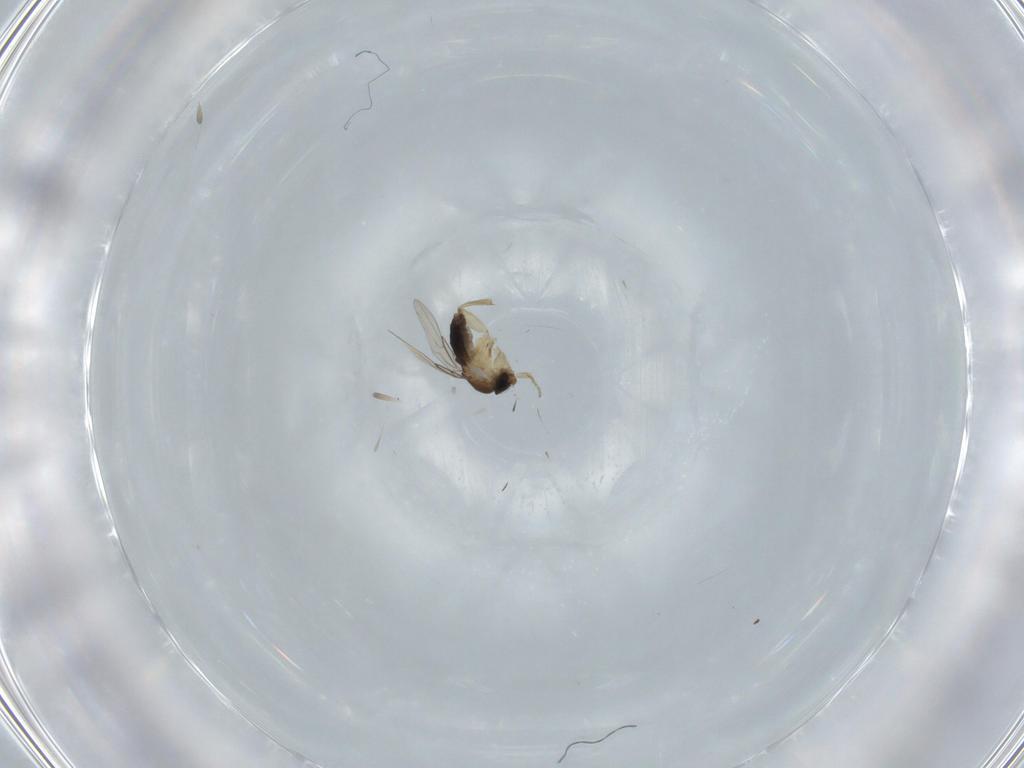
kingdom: Animalia
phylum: Arthropoda
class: Insecta
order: Diptera
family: Phoridae
